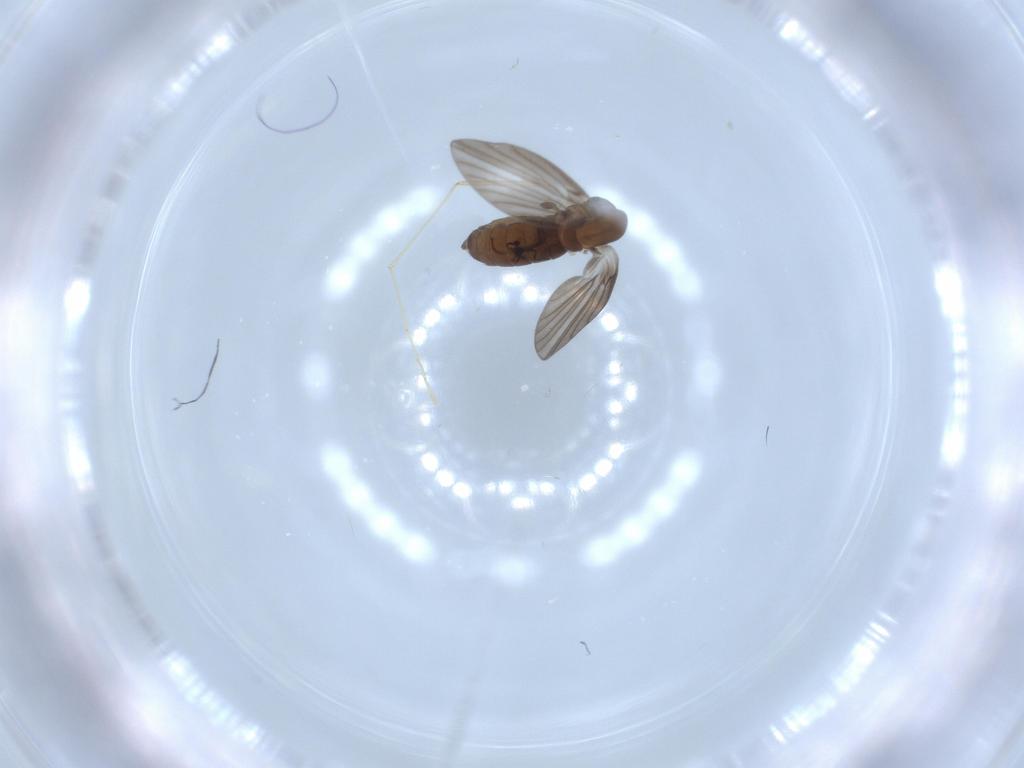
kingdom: Animalia
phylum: Arthropoda
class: Insecta
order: Diptera
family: Psychodidae
